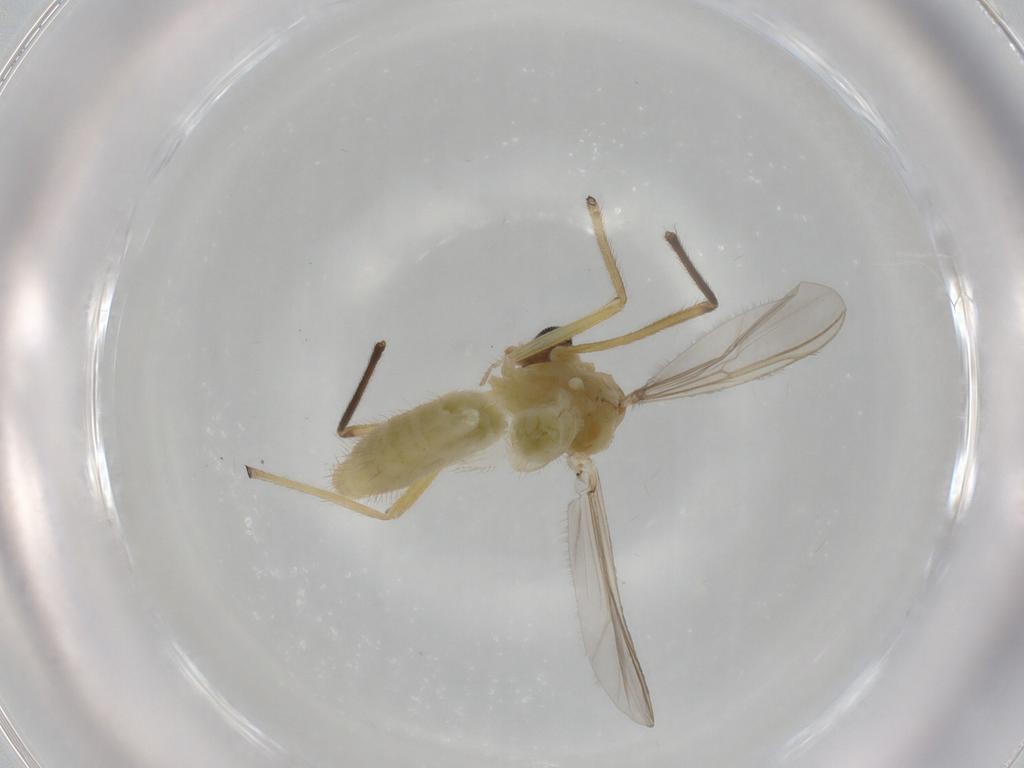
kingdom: Animalia
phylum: Arthropoda
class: Insecta
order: Diptera
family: Chironomidae
